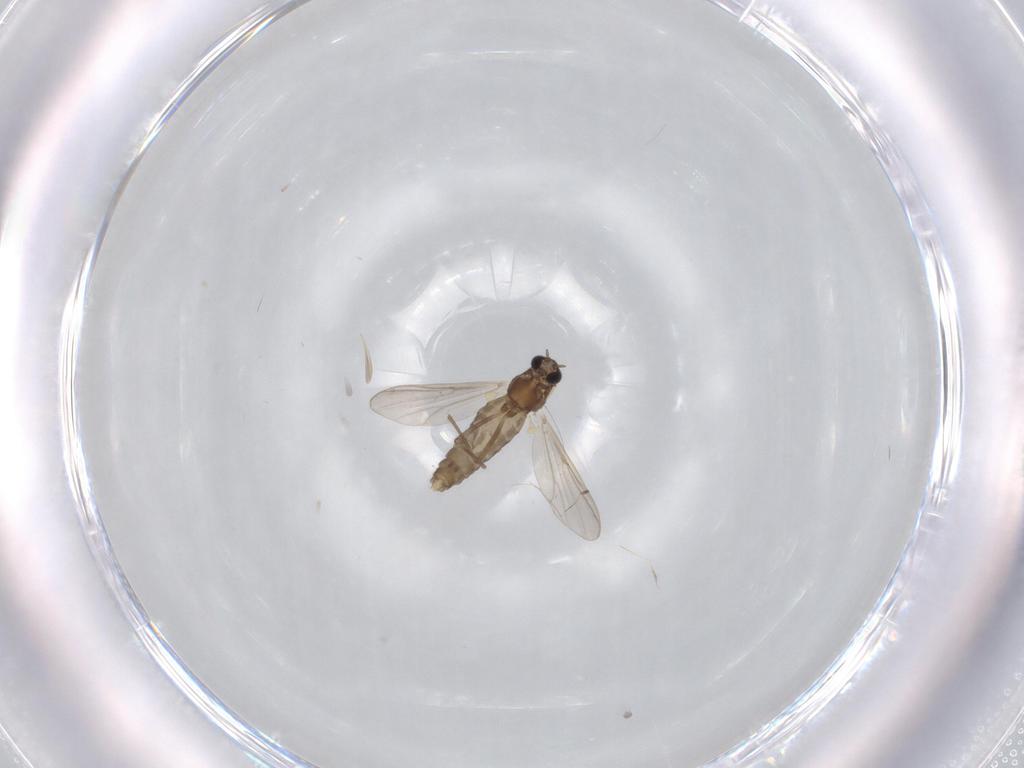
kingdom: Animalia
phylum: Arthropoda
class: Insecta
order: Diptera
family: Chironomidae
